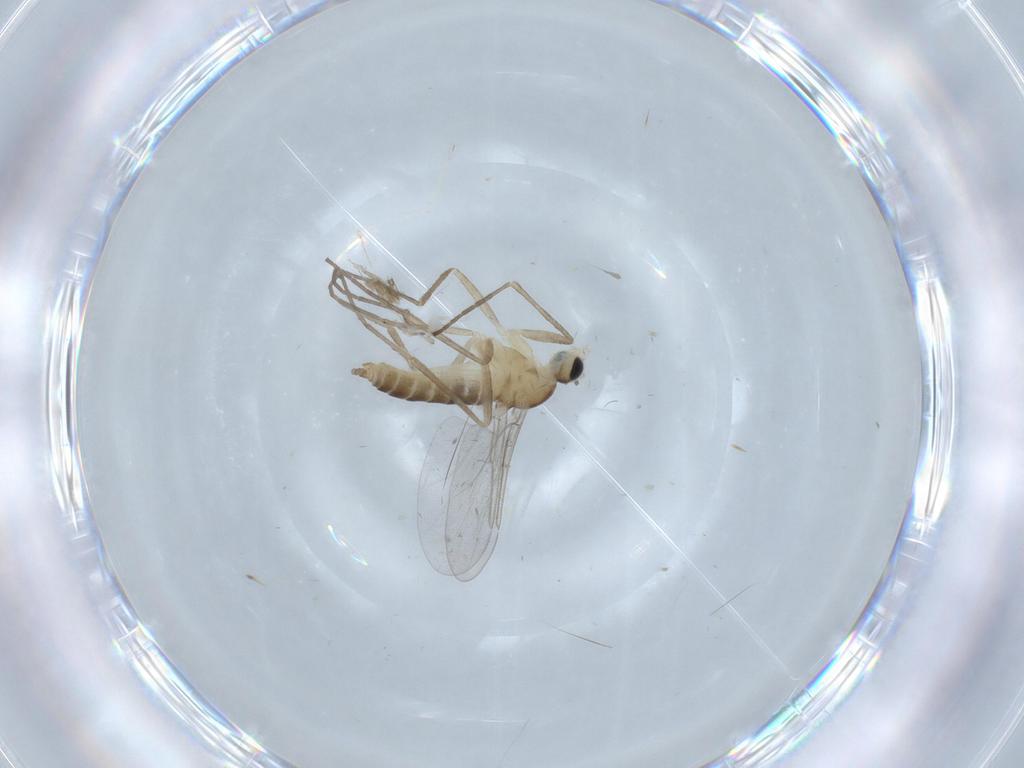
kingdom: Animalia
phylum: Arthropoda
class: Insecta
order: Diptera
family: Cecidomyiidae
